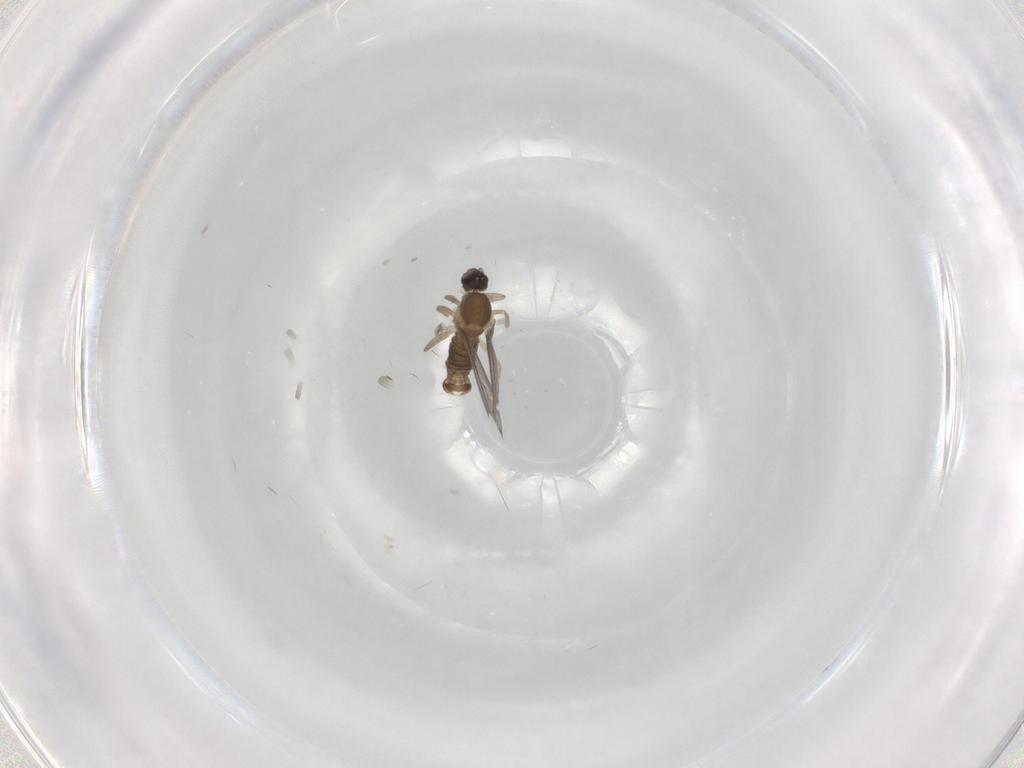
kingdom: Animalia
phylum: Arthropoda
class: Insecta
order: Diptera
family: Cecidomyiidae
